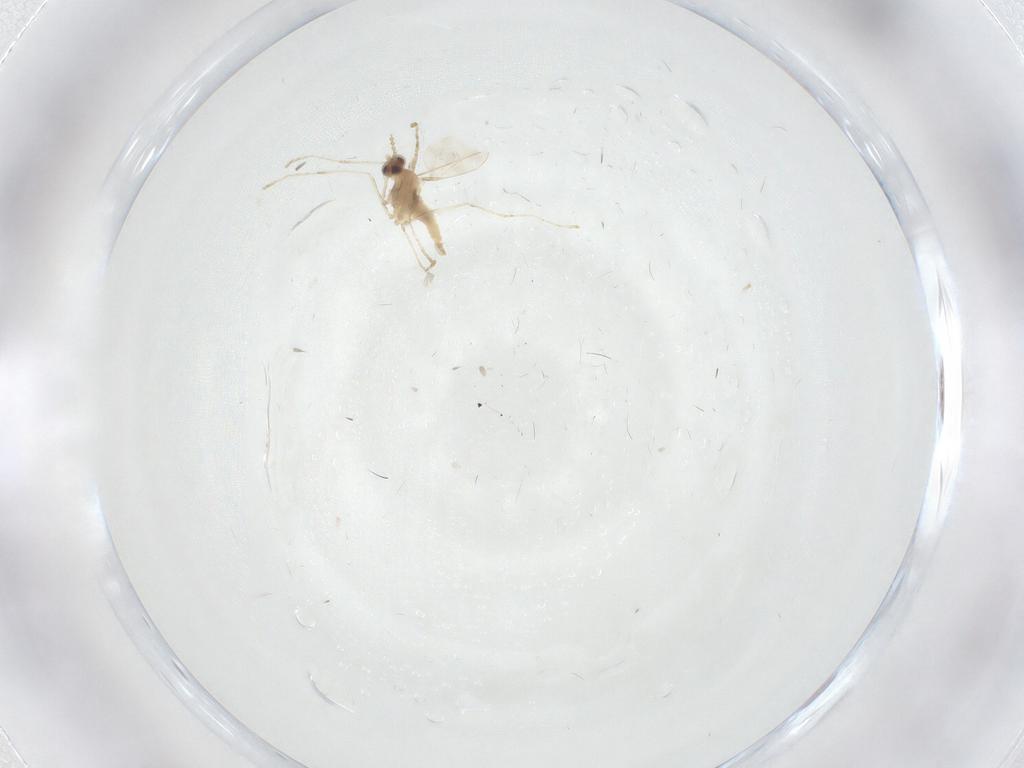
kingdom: Animalia
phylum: Arthropoda
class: Insecta
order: Diptera
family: Cecidomyiidae
